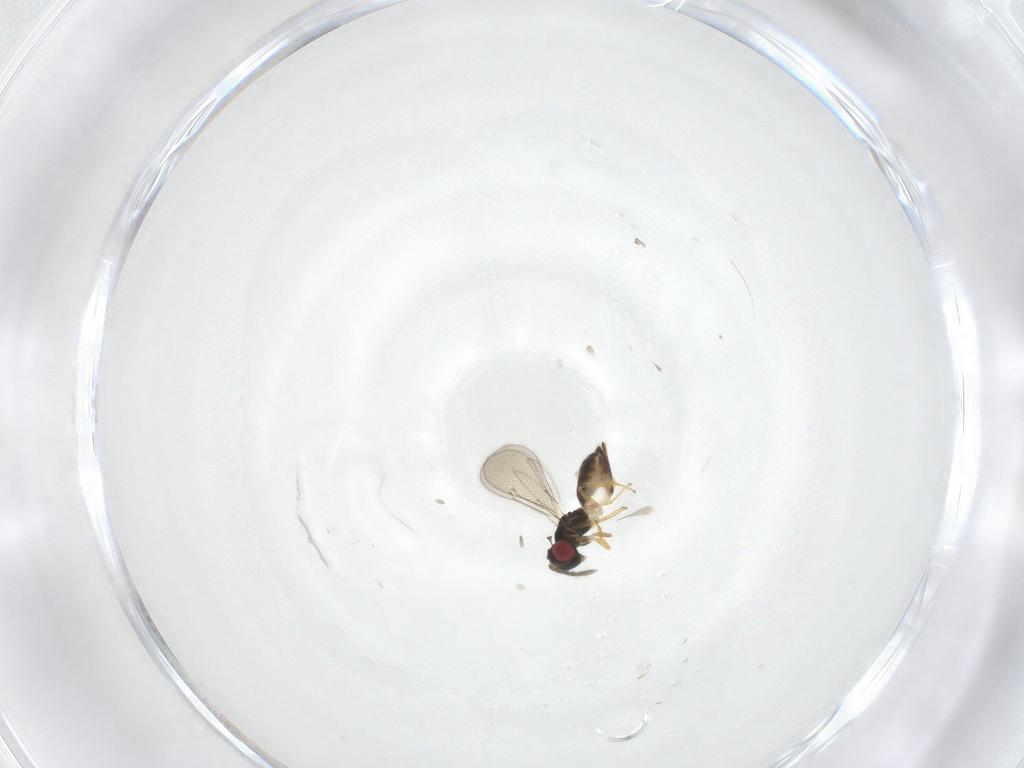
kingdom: Animalia
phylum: Arthropoda
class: Insecta
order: Hymenoptera
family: Eulophidae
